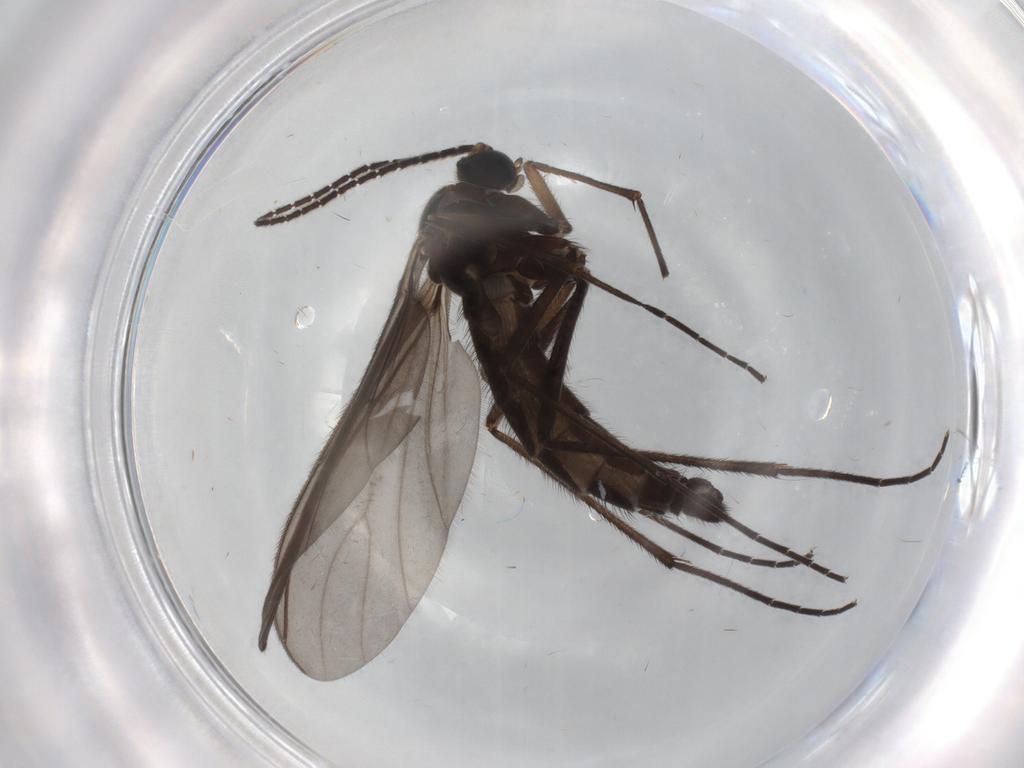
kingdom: Animalia
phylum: Arthropoda
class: Insecta
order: Diptera
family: Sciaridae
